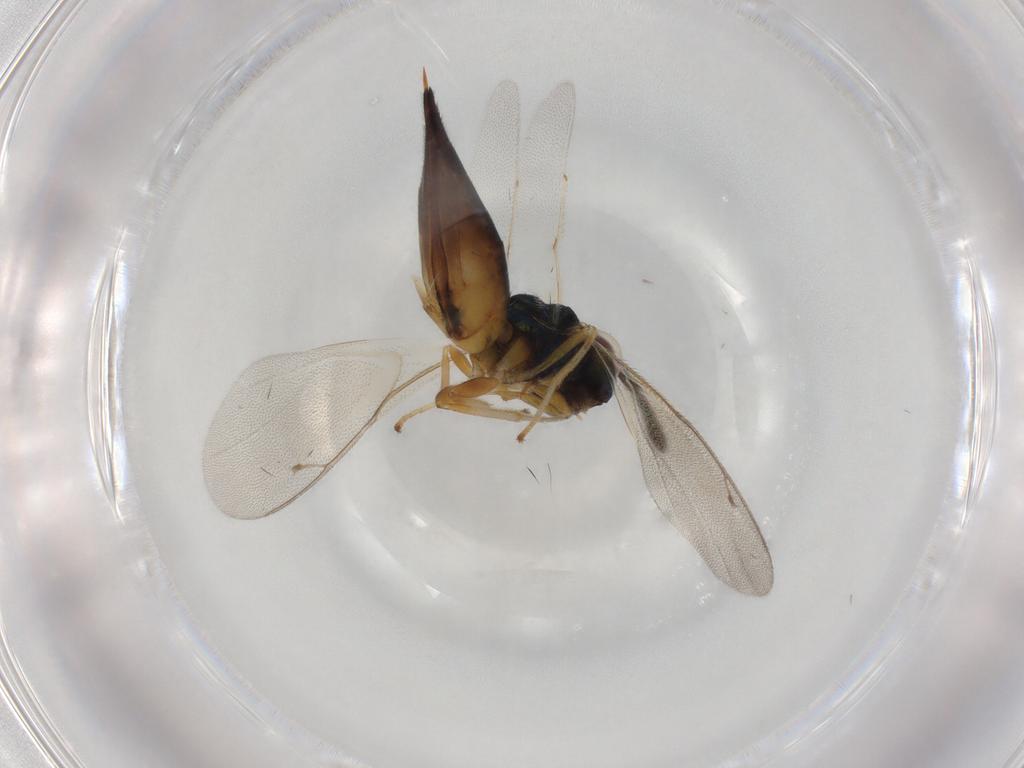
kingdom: Animalia
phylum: Arthropoda
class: Insecta
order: Hymenoptera
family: Pteromalidae
